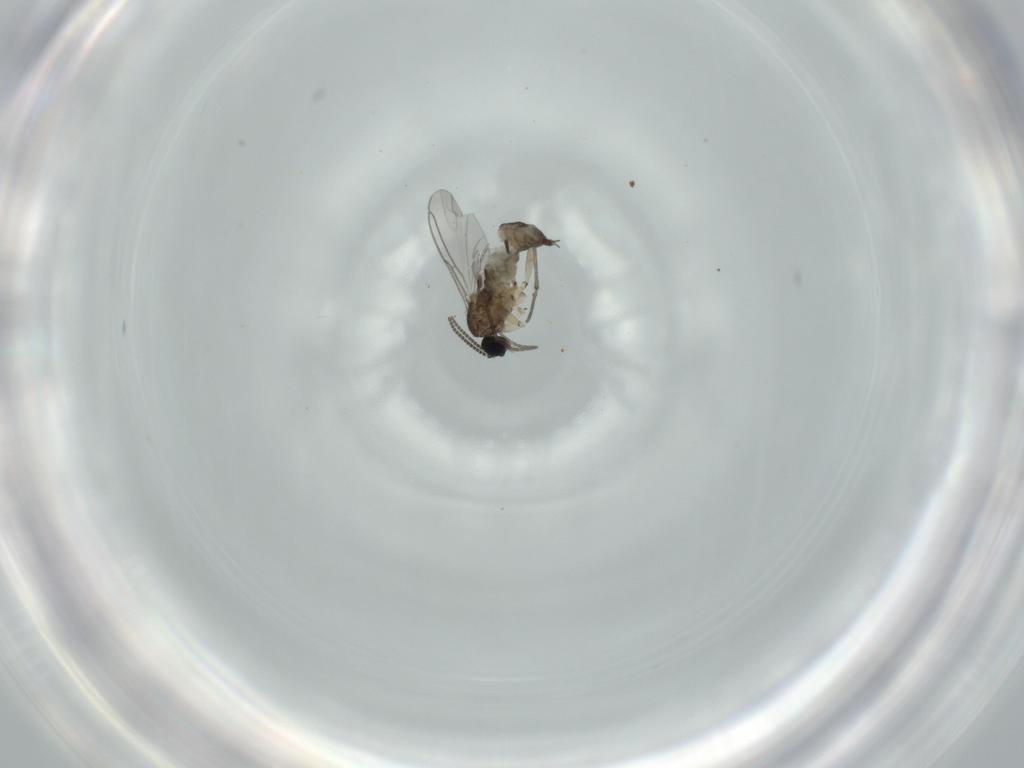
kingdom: Animalia
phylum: Arthropoda
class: Insecta
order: Diptera
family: Sciaridae
